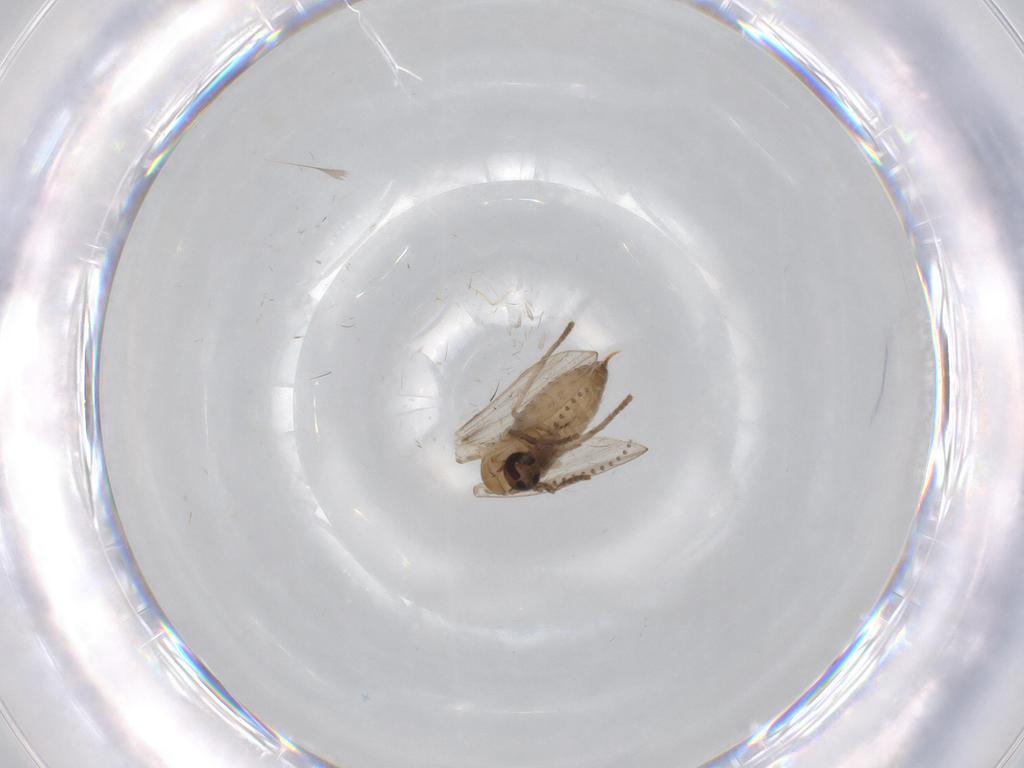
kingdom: Animalia
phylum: Arthropoda
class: Insecta
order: Diptera
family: Psychodidae
